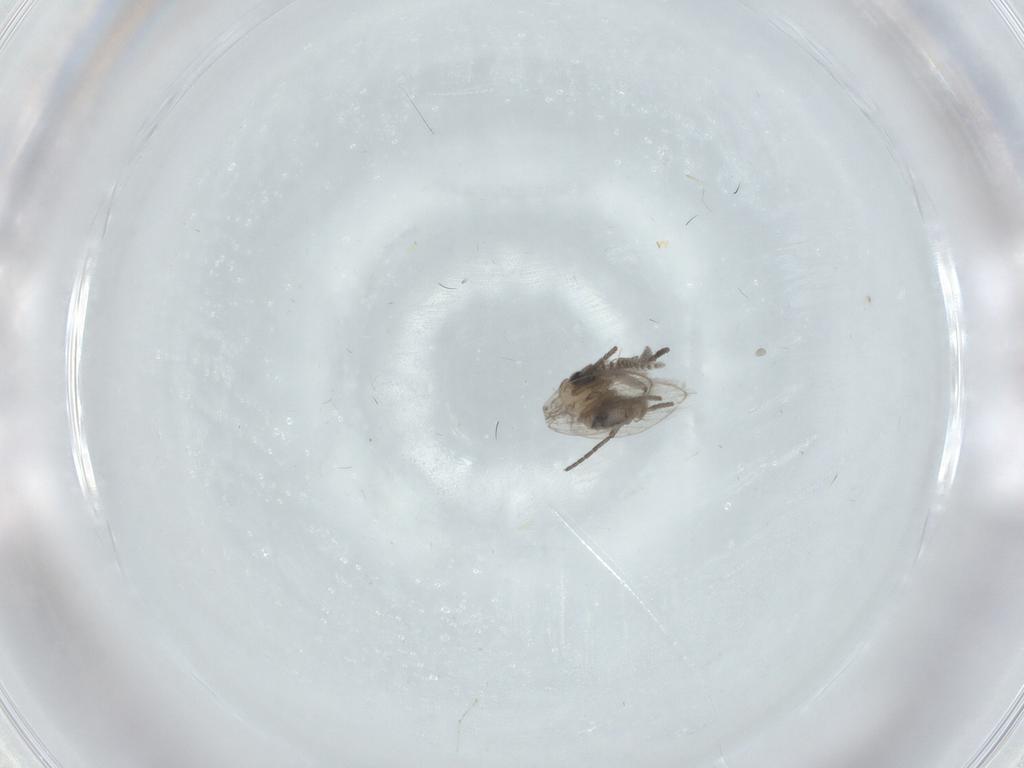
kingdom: Animalia
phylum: Arthropoda
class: Insecta
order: Diptera
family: Psychodidae
